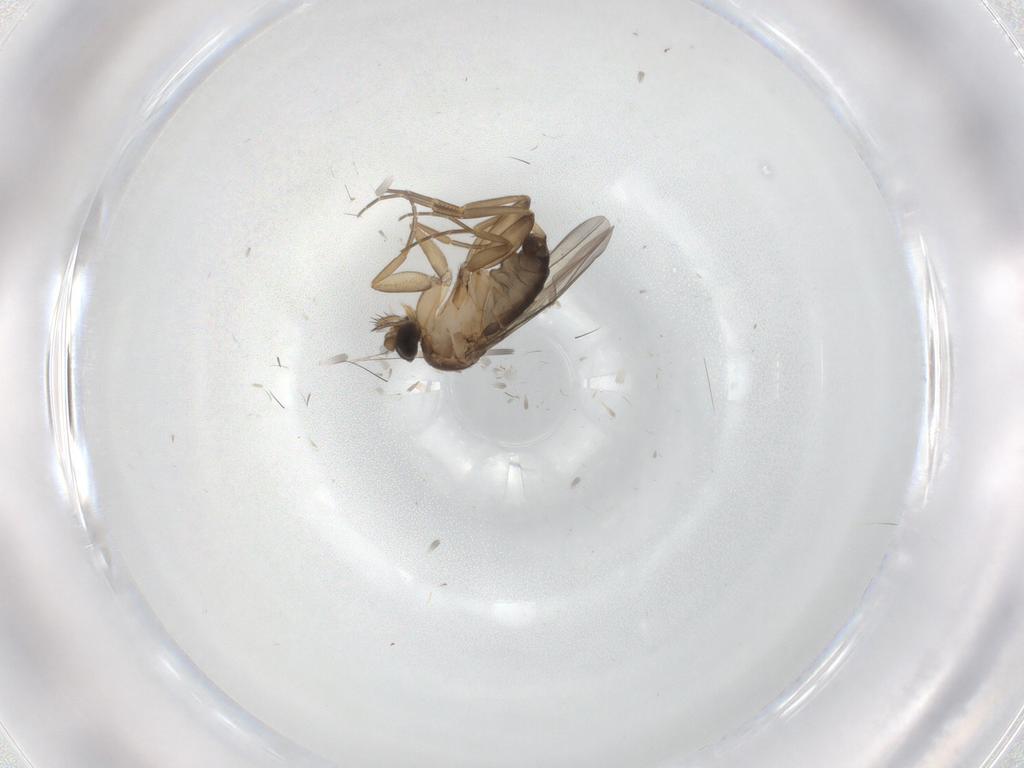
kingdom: Animalia
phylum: Arthropoda
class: Insecta
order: Diptera
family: Phoridae
